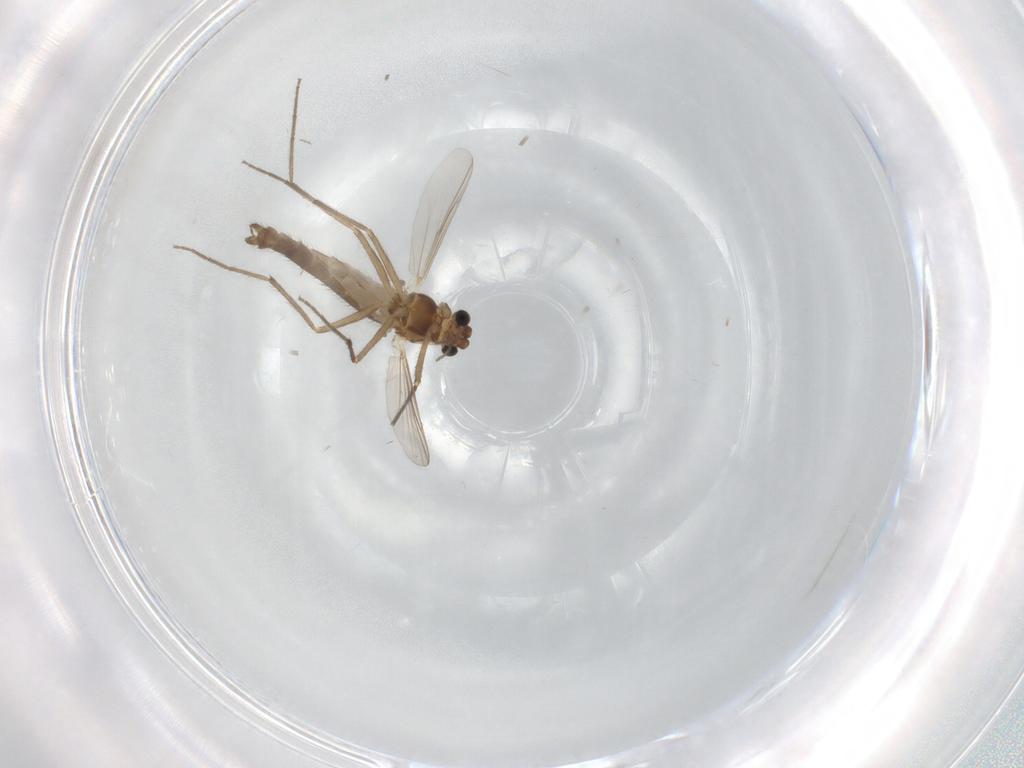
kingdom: Animalia
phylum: Arthropoda
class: Insecta
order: Diptera
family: Chironomidae
